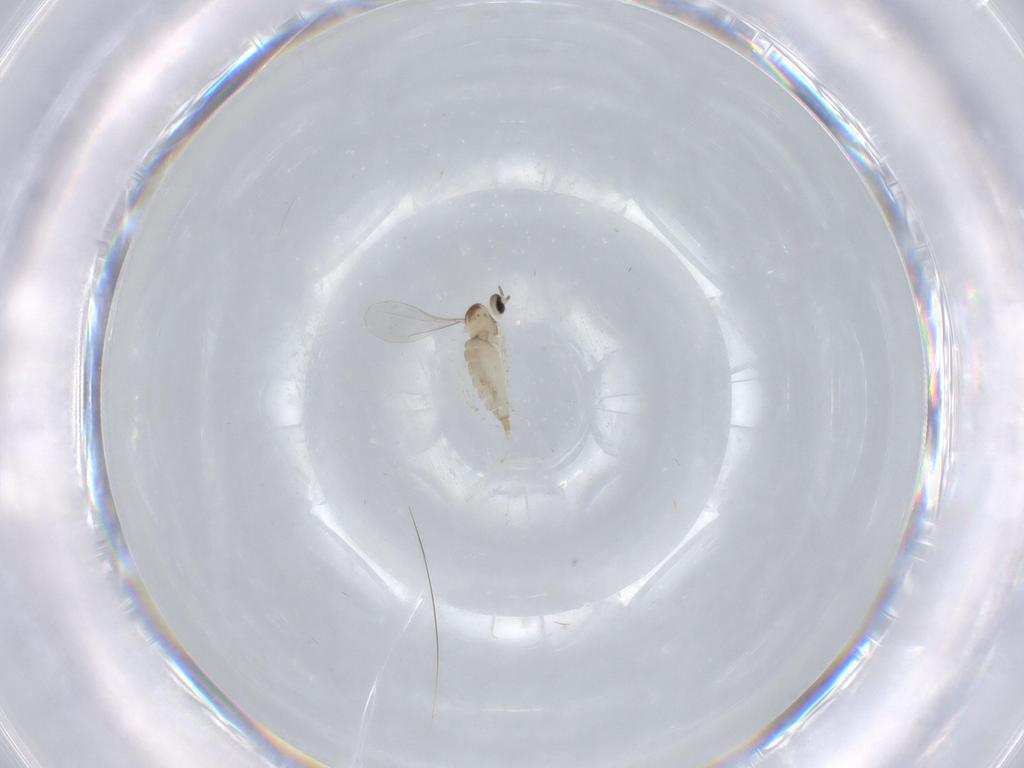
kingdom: Animalia
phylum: Arthropoda
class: Insecta
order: Diptera
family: Cecidomyiidae
